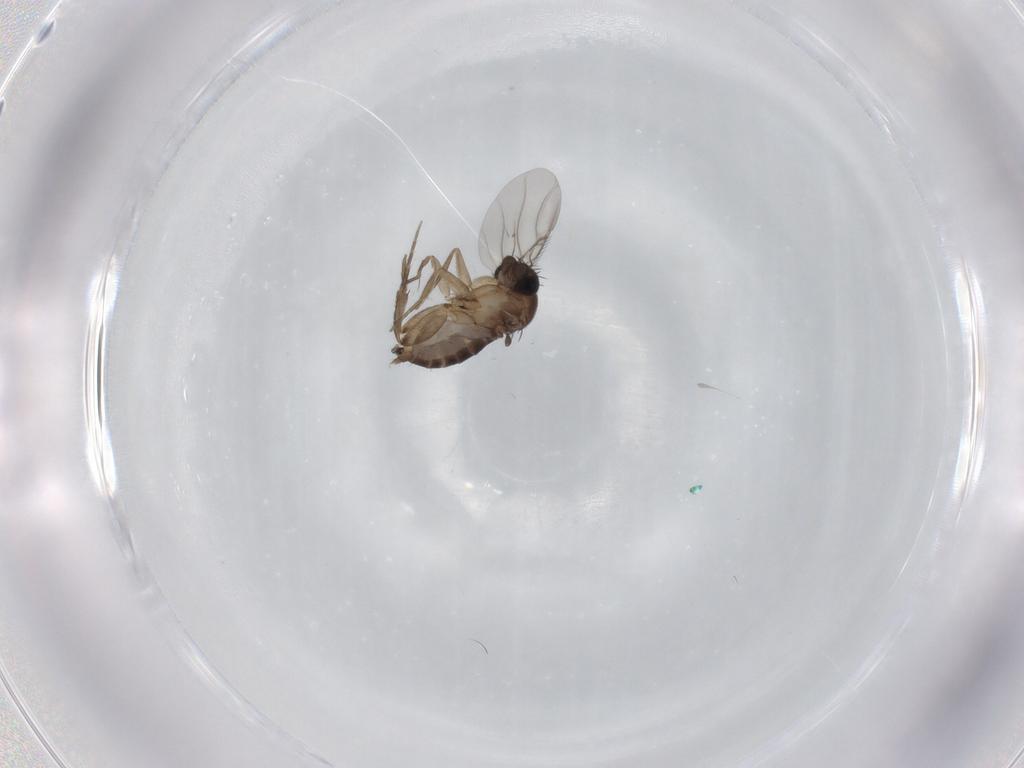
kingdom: Animalia
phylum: Arthropoda
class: Insecta
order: Diptera
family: Phoridae
